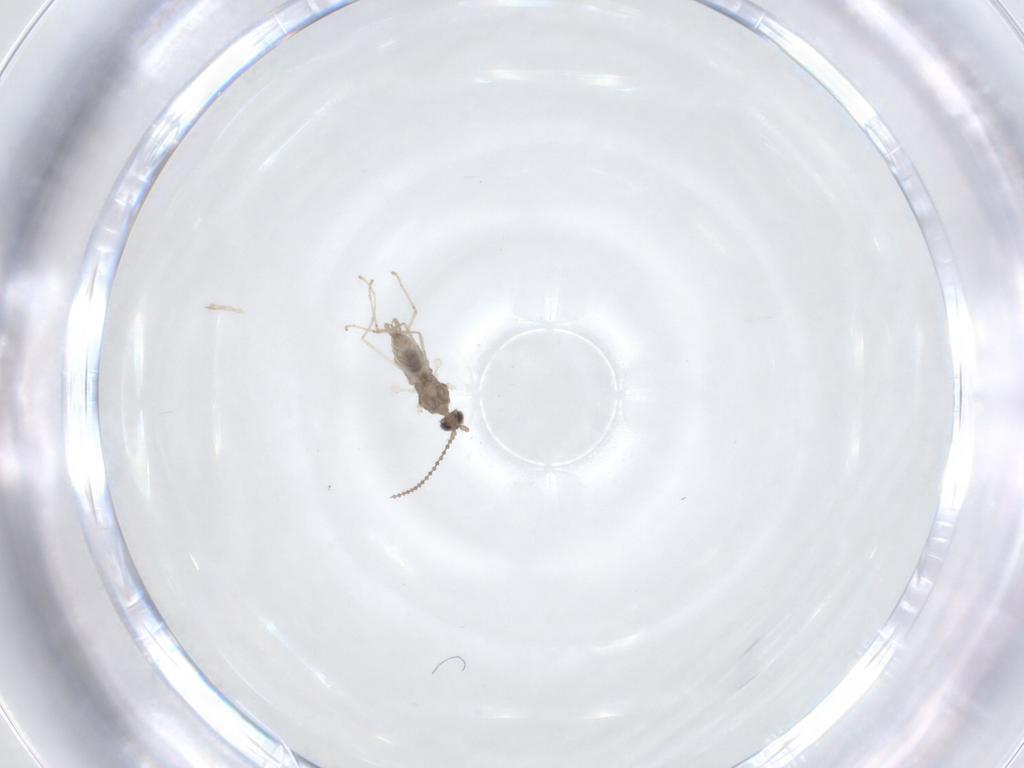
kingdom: Animalia
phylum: Arthropoda
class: Insecta
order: Diptera
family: Cecidomyiidae
